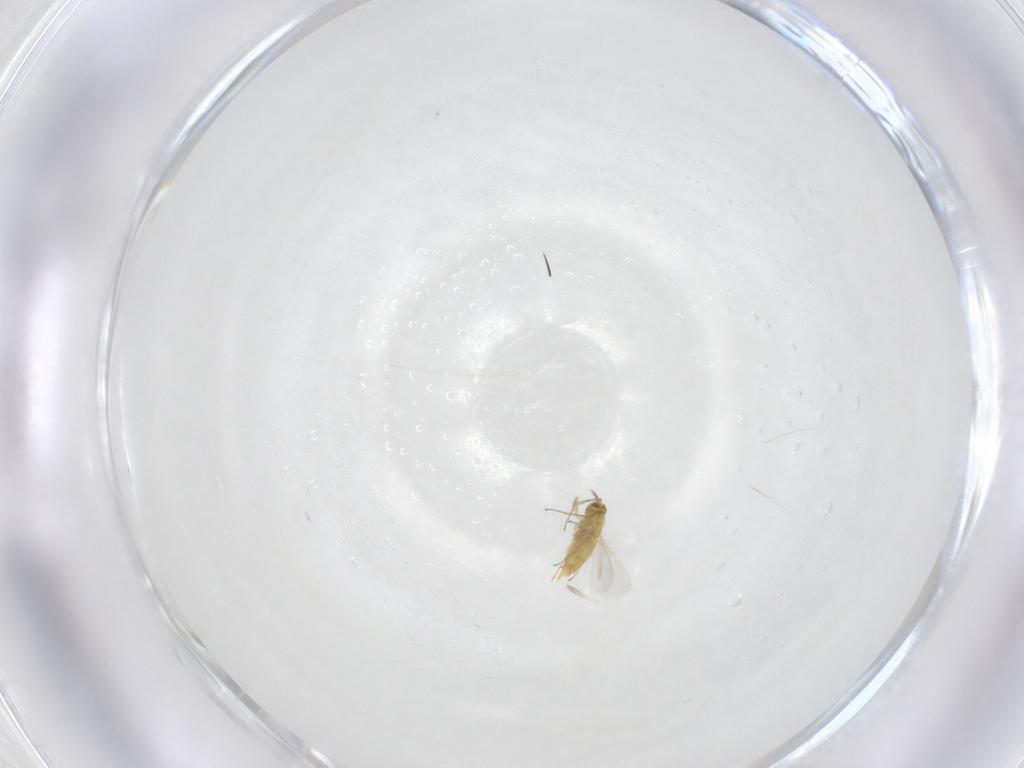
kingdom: Animalia
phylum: Arthropoda
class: Insecta
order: Hymenoptera
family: Aphelinidae
